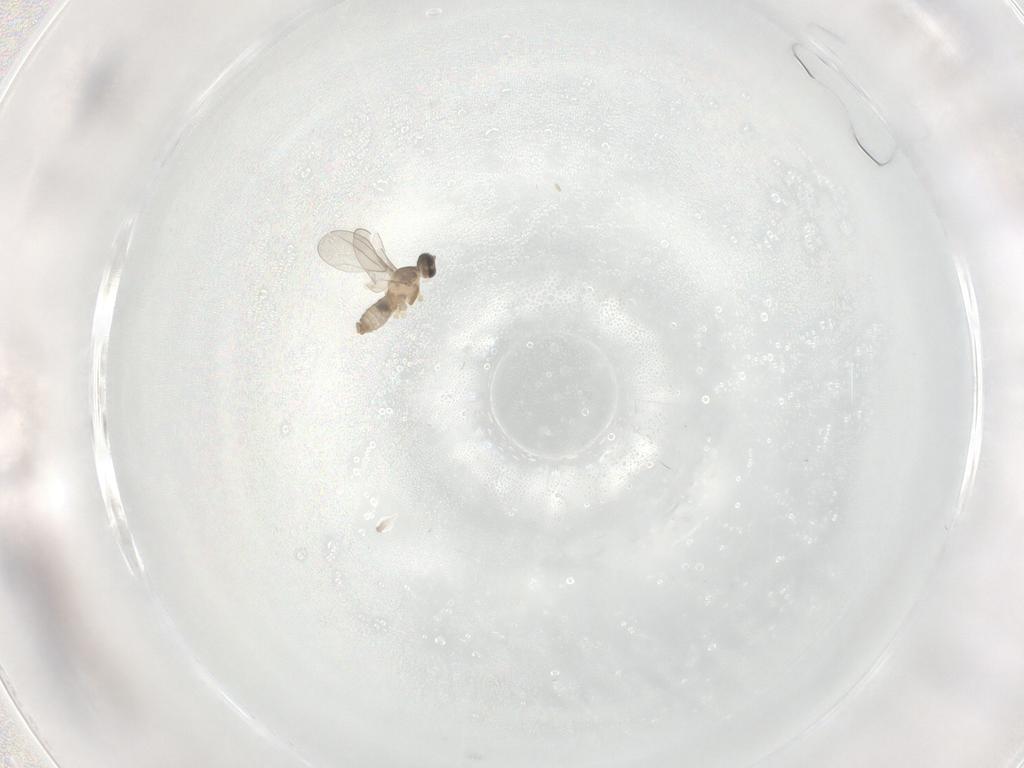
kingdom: Animalia
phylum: Arthropoda
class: Insecta
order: Diptera
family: Cecidomyiidae
